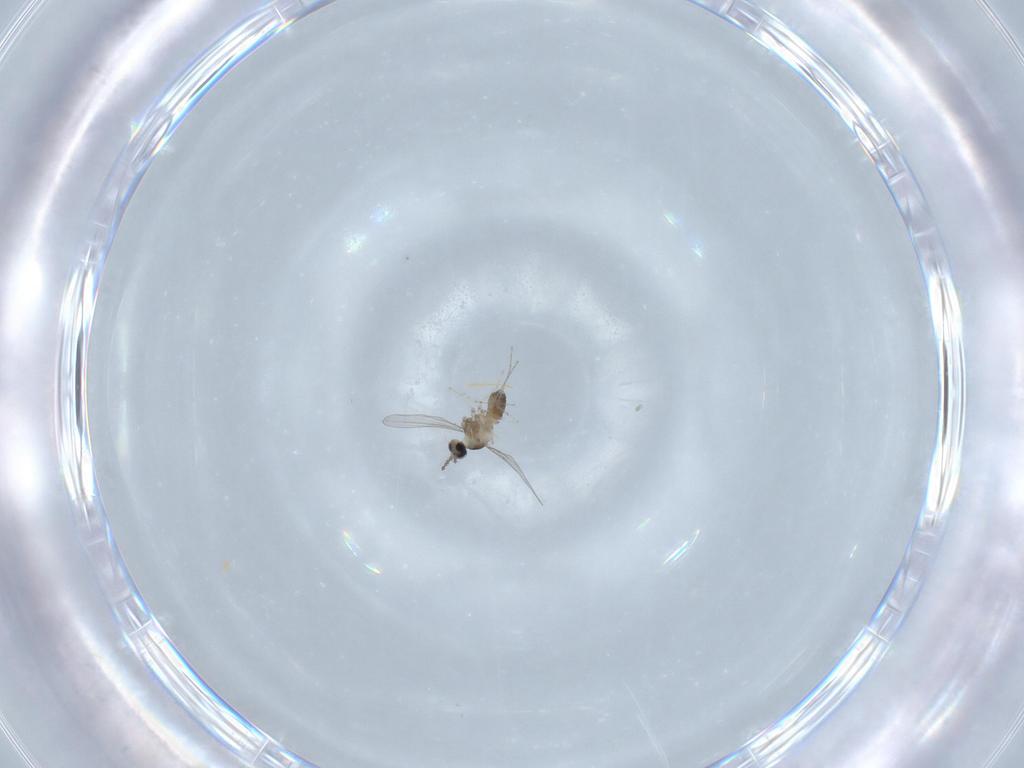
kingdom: Animalia
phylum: Arthropoda
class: Insecta
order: Diptera
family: Cecidomyiidae
